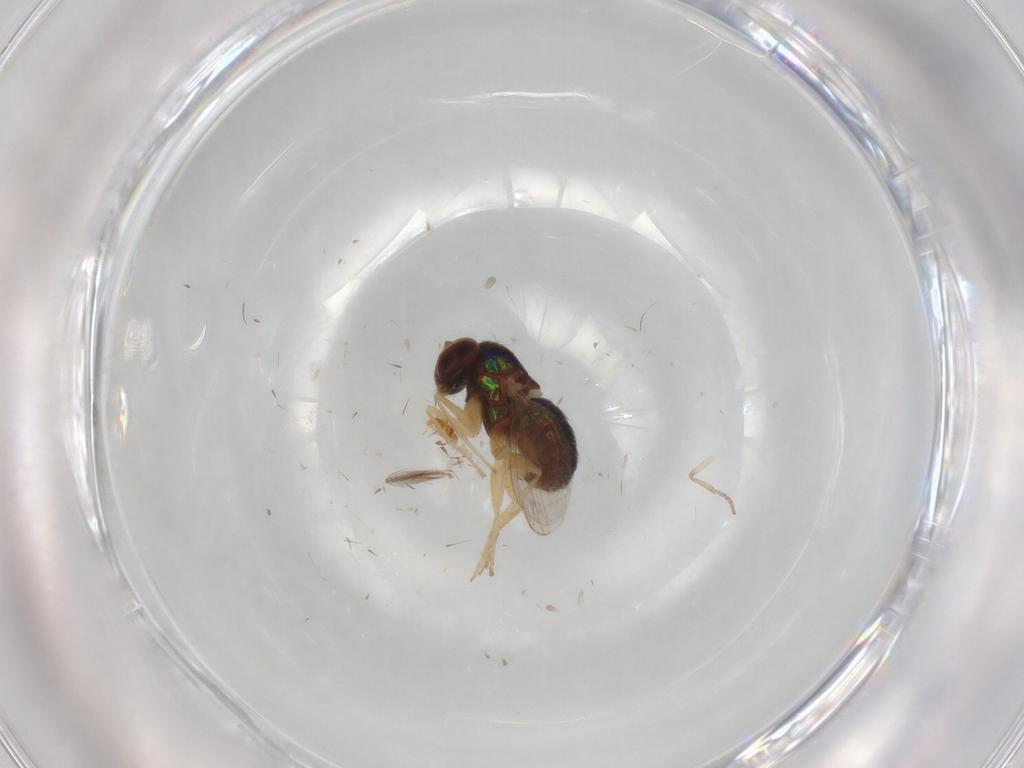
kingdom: Animalia
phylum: Arthropoda
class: Insecta
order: Diptera
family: Dolichopodidae
